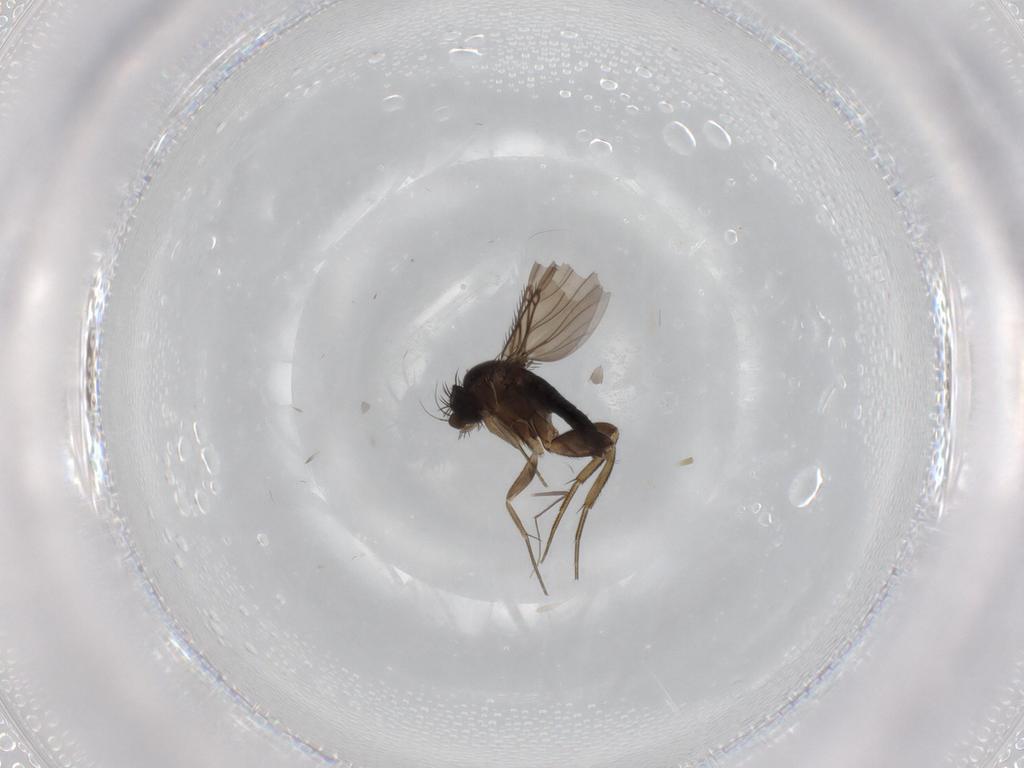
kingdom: Animalia
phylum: Arthropoda
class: Insecta
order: Diptera
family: Phoridae
